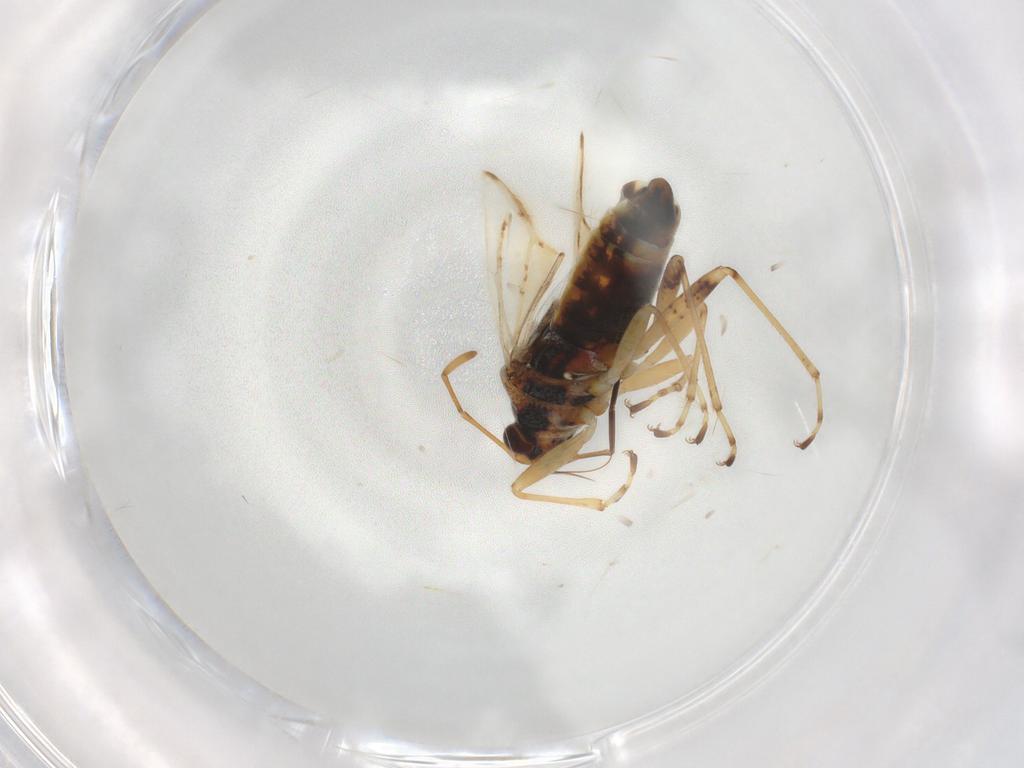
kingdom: Animalia
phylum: Arthropoda
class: Insecta
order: Hemiptera
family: Lygaeidae
